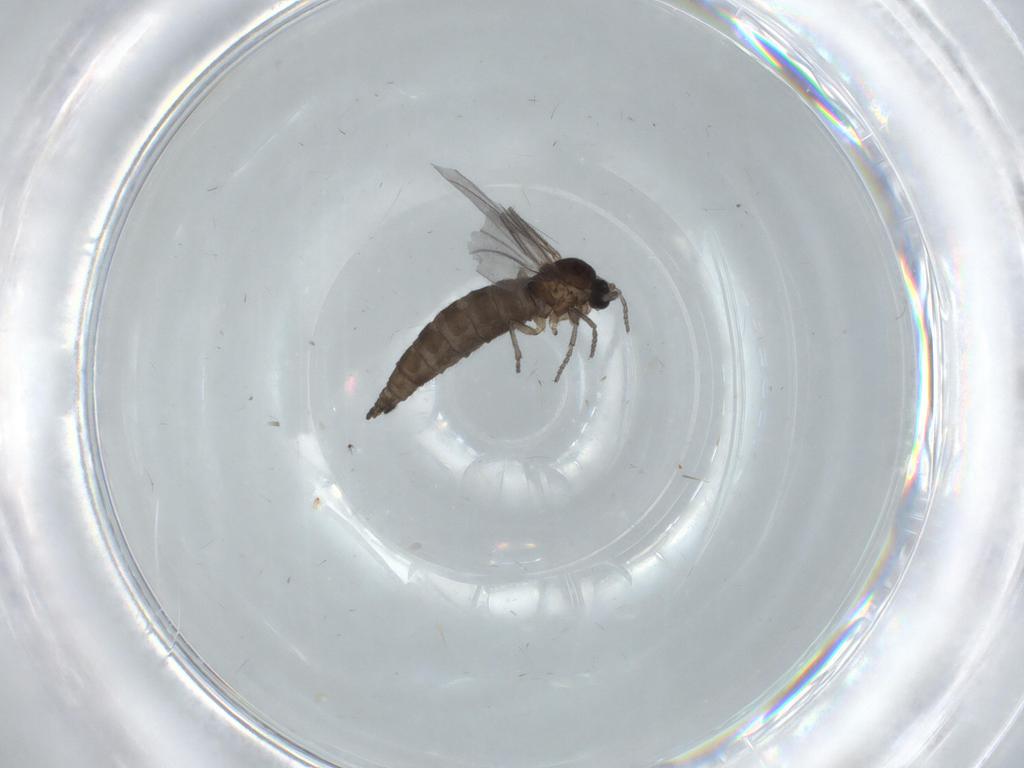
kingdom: Animalia
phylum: Arthropoda
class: Insecta
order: Diptera
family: Sciaridae
